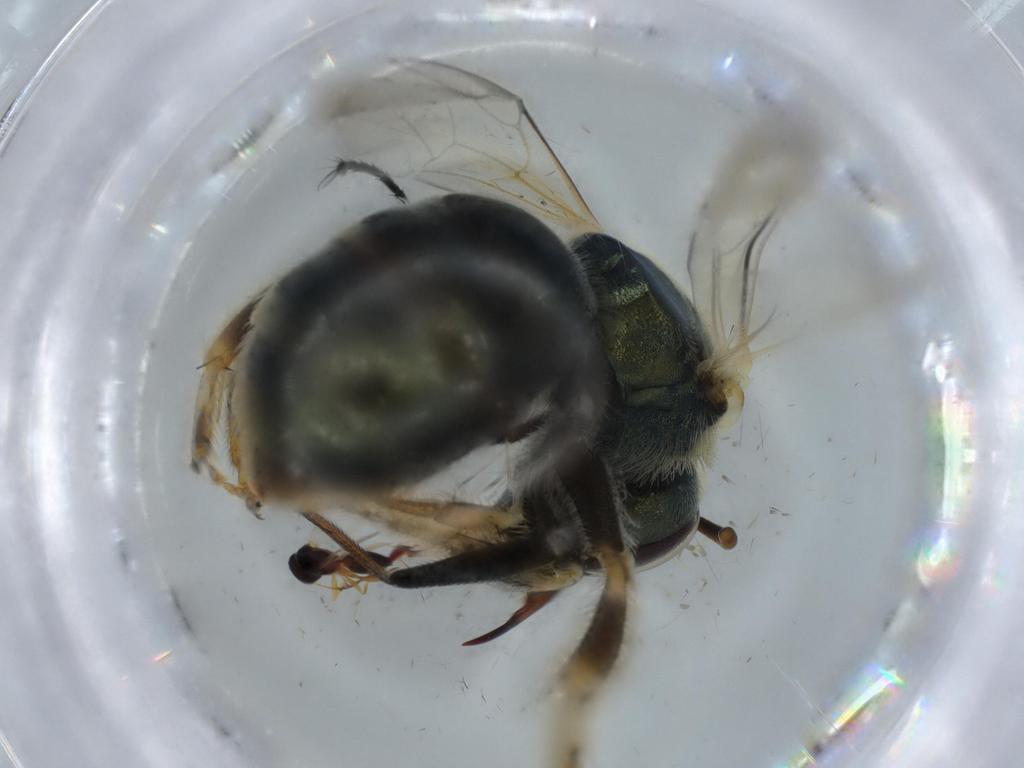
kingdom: Animalia
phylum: Arthropoda
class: Insecta
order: Hymenoptera
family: Figitidae
